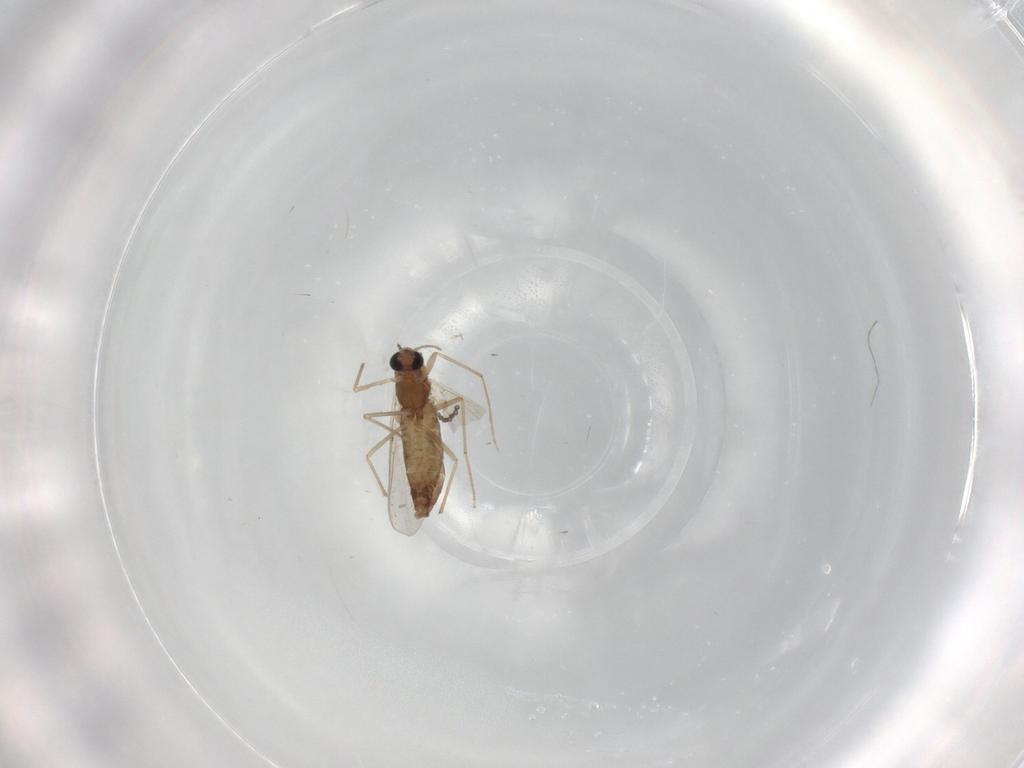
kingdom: Animalia
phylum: Arthropoda
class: Insecta
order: Diptera
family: Chironomidae
